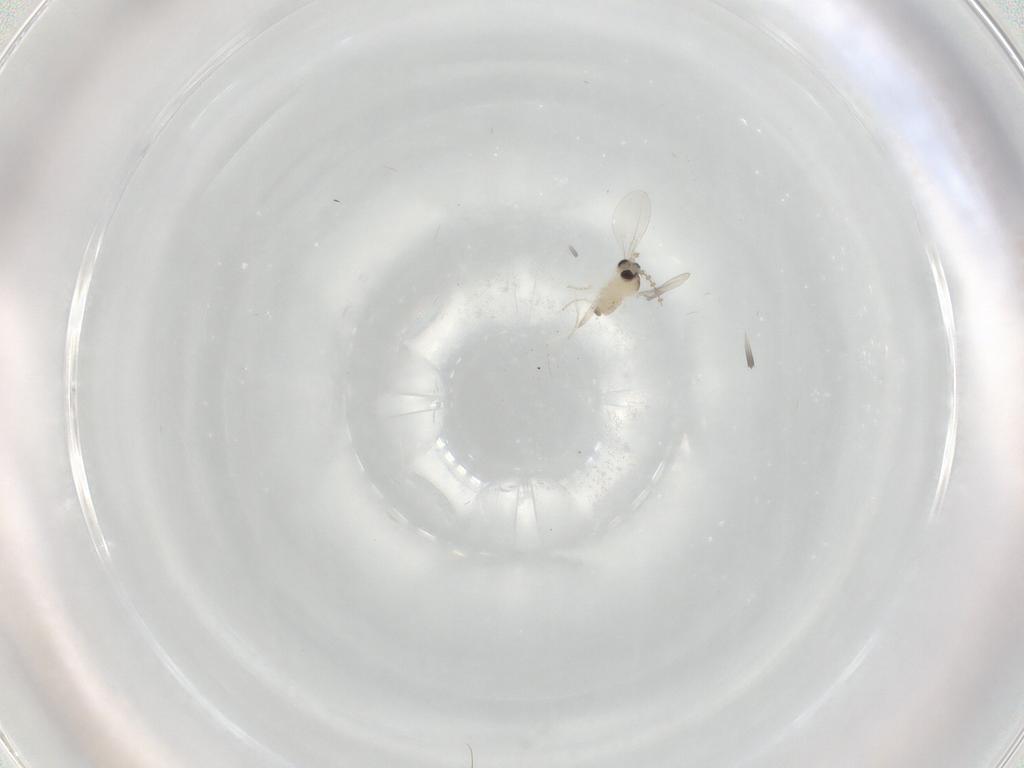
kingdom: Animalia
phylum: Arthropoda
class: Insecta
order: Diptera
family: Cecidomyiidae
